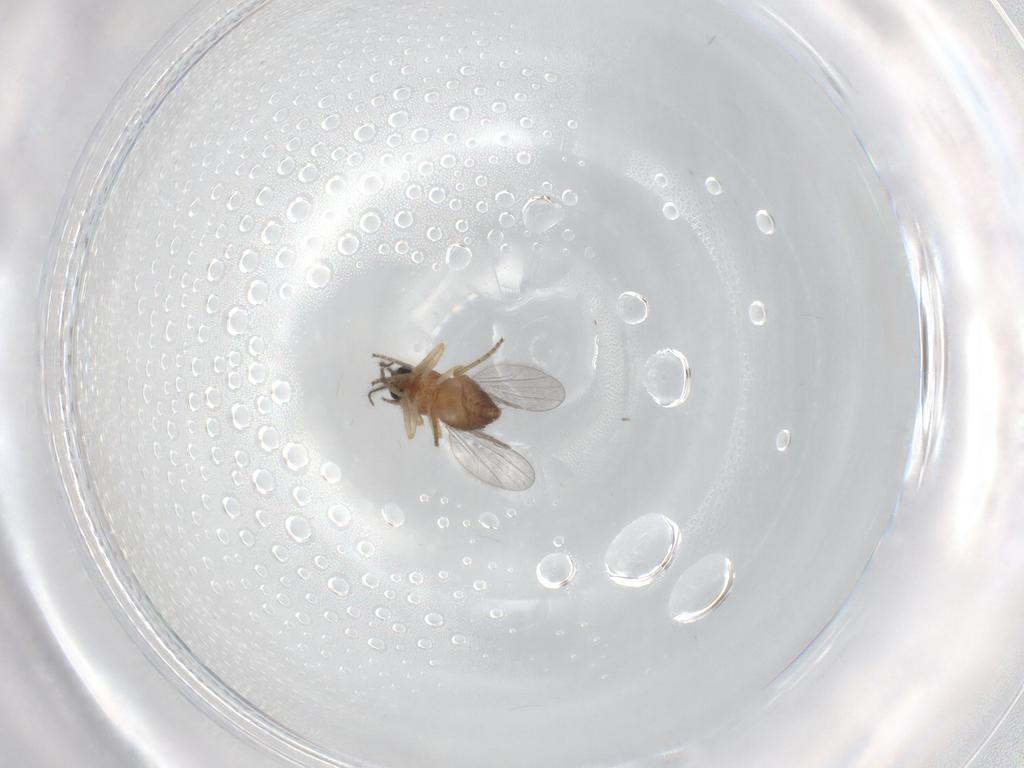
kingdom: Animalia
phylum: Arthropoda
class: Insecta
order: Diptera
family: Ceratopogonidae
